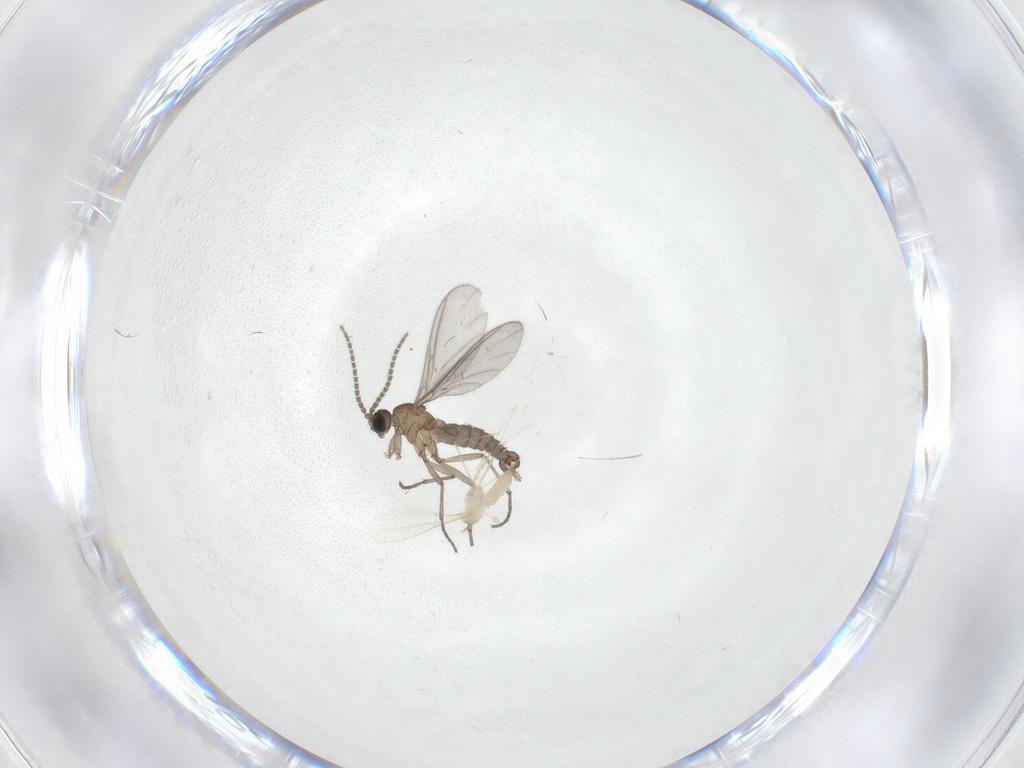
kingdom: Animalia
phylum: Arthropoda
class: Insecta
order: Diptera
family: Sciaridae
